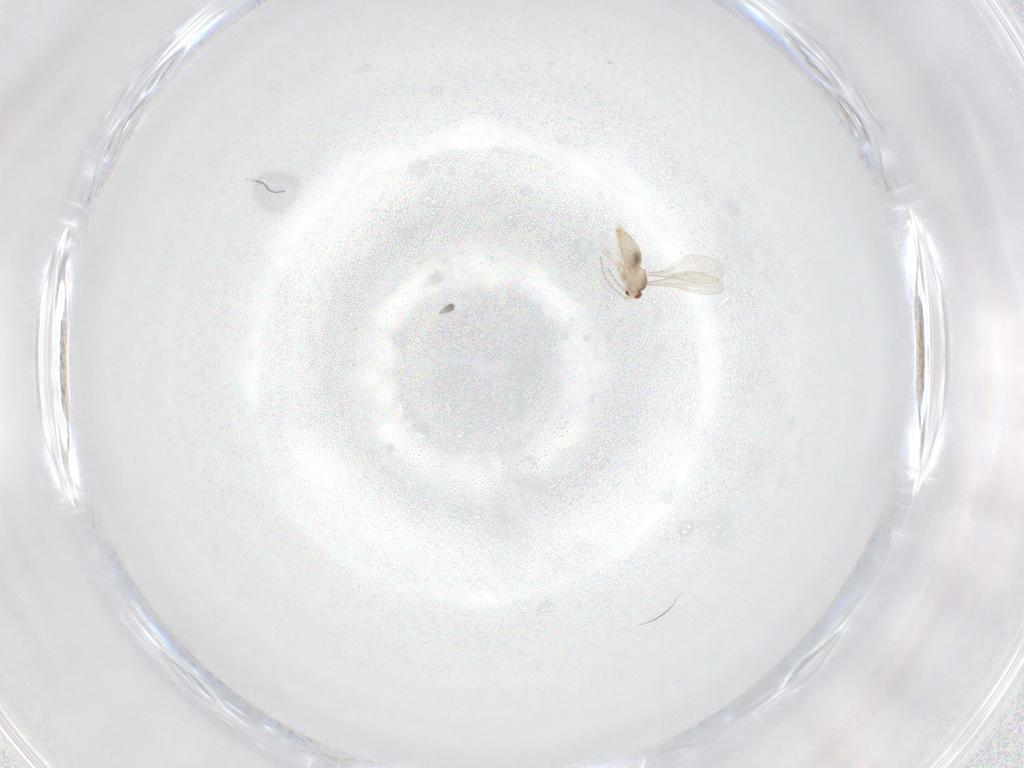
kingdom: Animalia
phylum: Arthropoda
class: Insecta
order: Diptera
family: Cecidomyiidae
